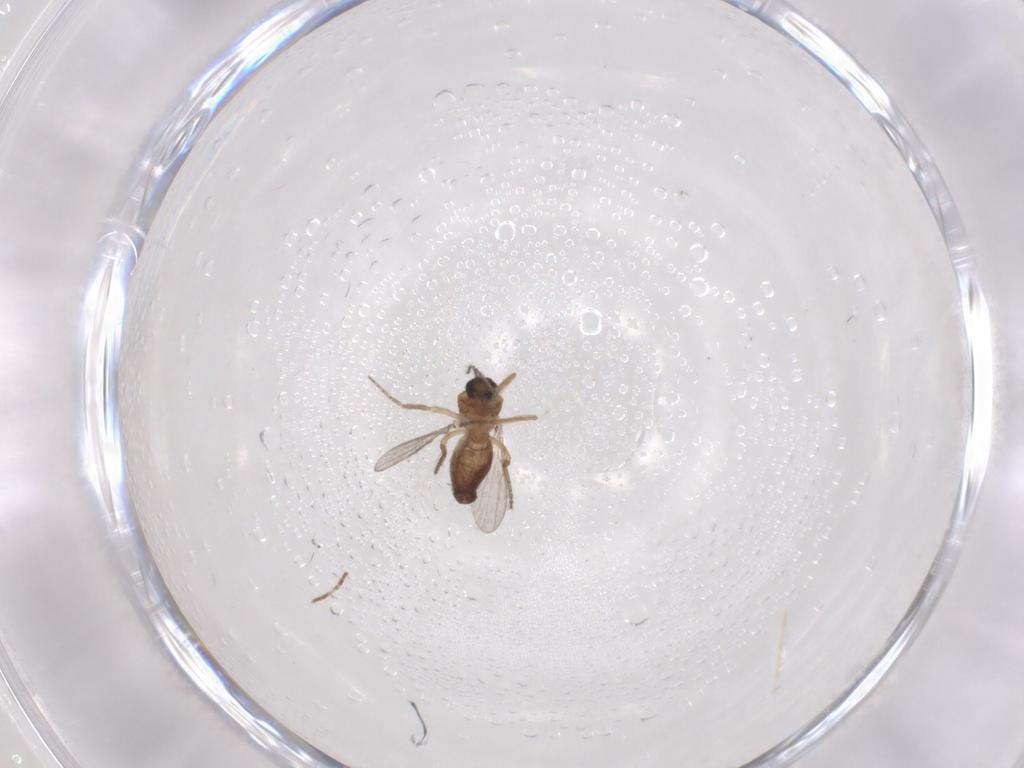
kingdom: Animalia
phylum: Arthropoda
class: Insecta
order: Diptera
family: Ceratopogonidae
